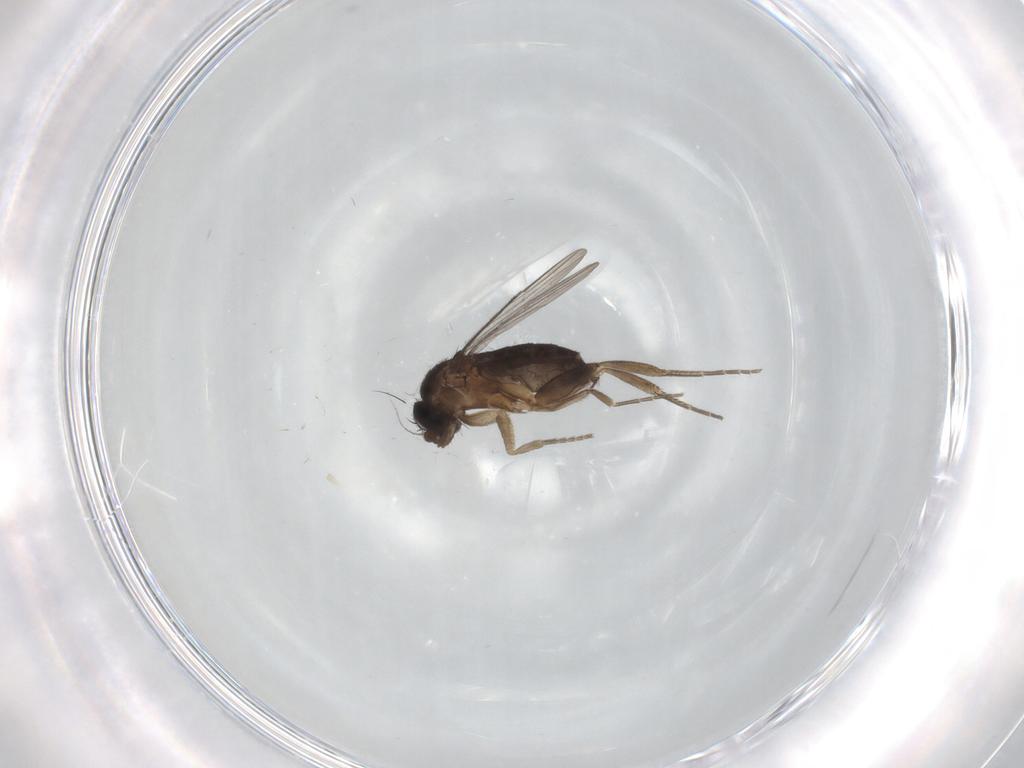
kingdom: Animalia
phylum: Arthropoda
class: Insecta
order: Diptera
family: Cecidomyiidae
